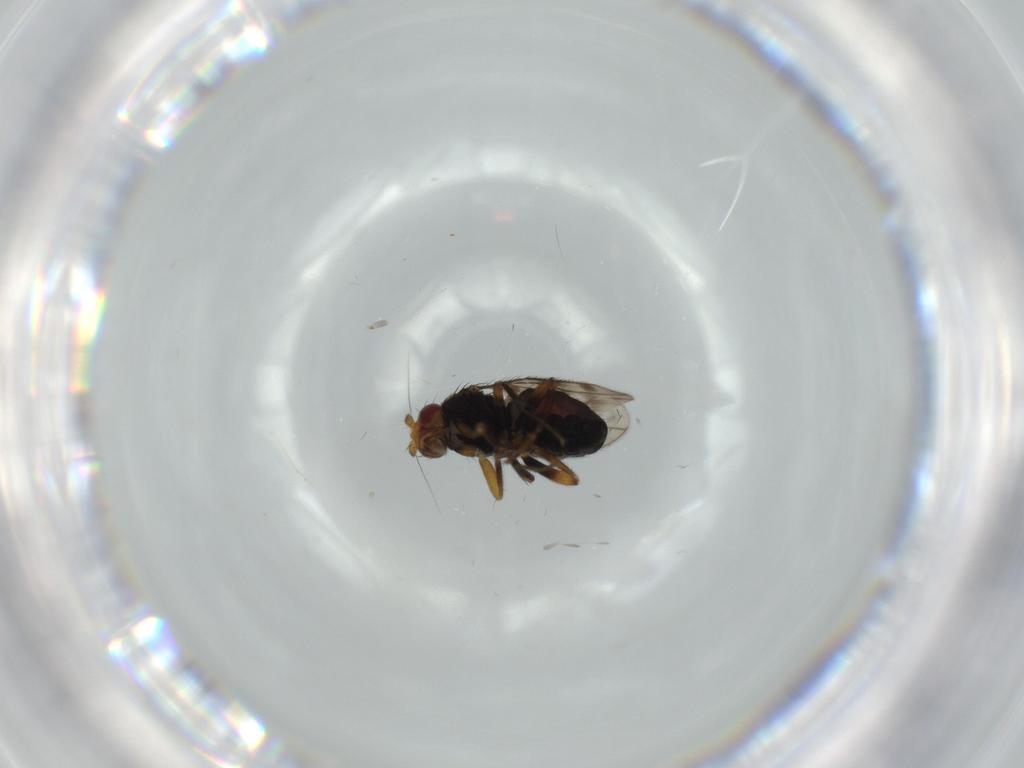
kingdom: Animalia
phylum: Arthropoda
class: Insecta
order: Diptera
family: Sphaeroceridae
